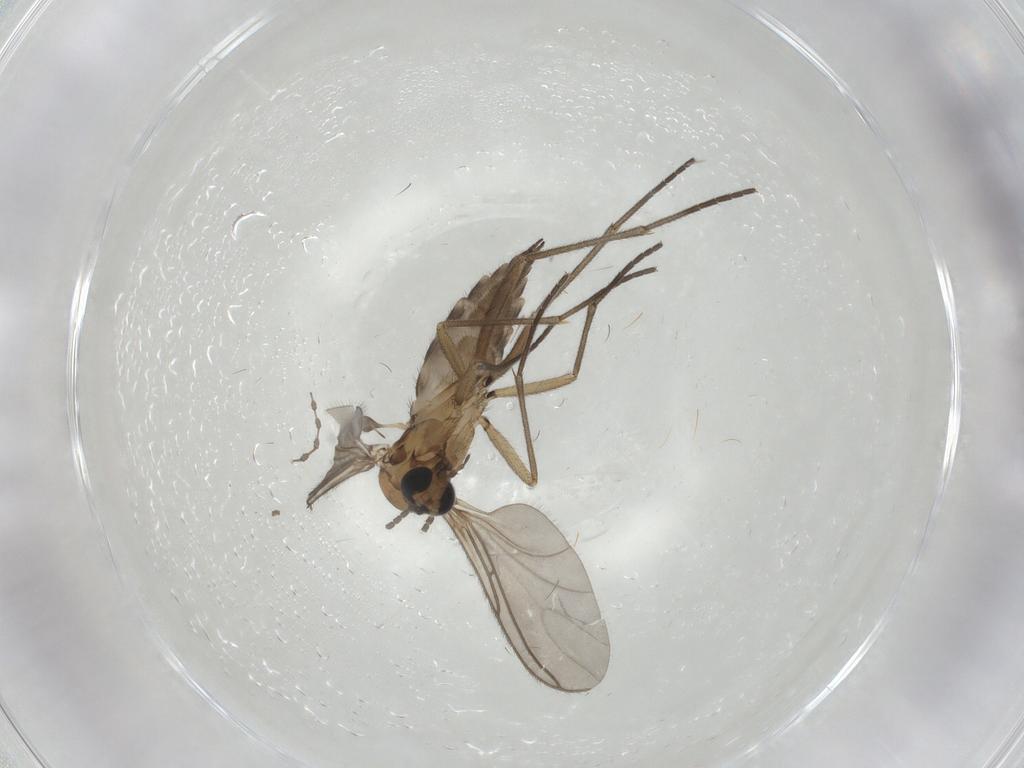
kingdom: Animalia
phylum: Arthropoda
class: Insecta
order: Diptera
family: Sciaridae
